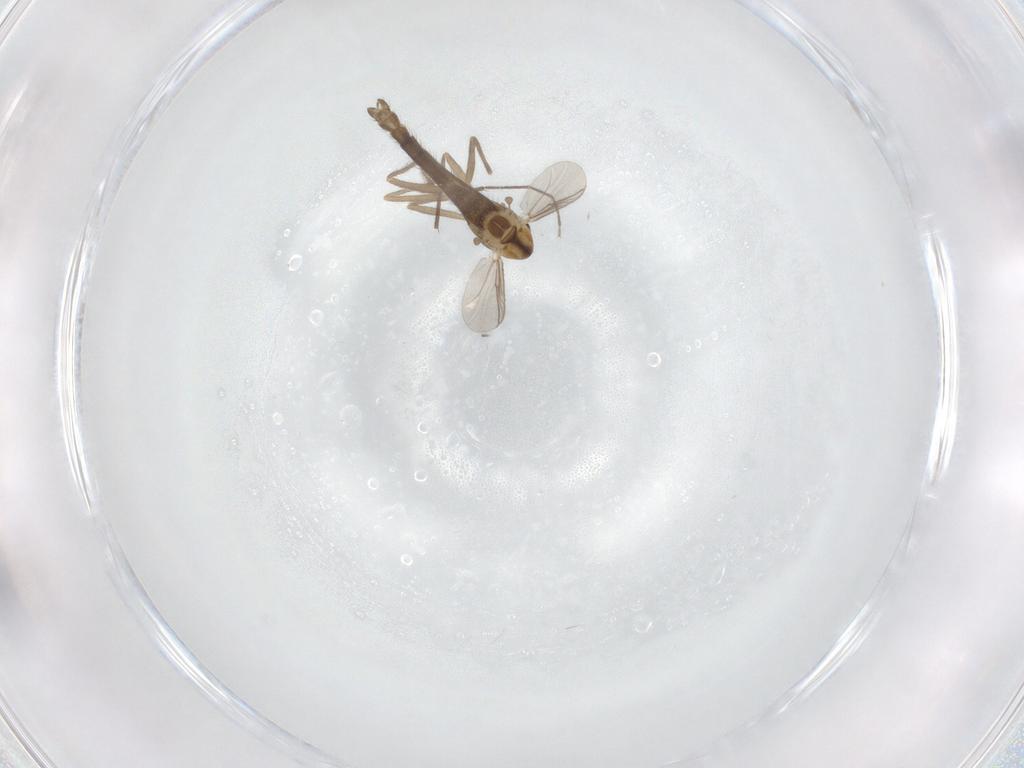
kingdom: Animalia
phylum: Arthropoda
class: Insecta
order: Diptera
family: Chironomidae
